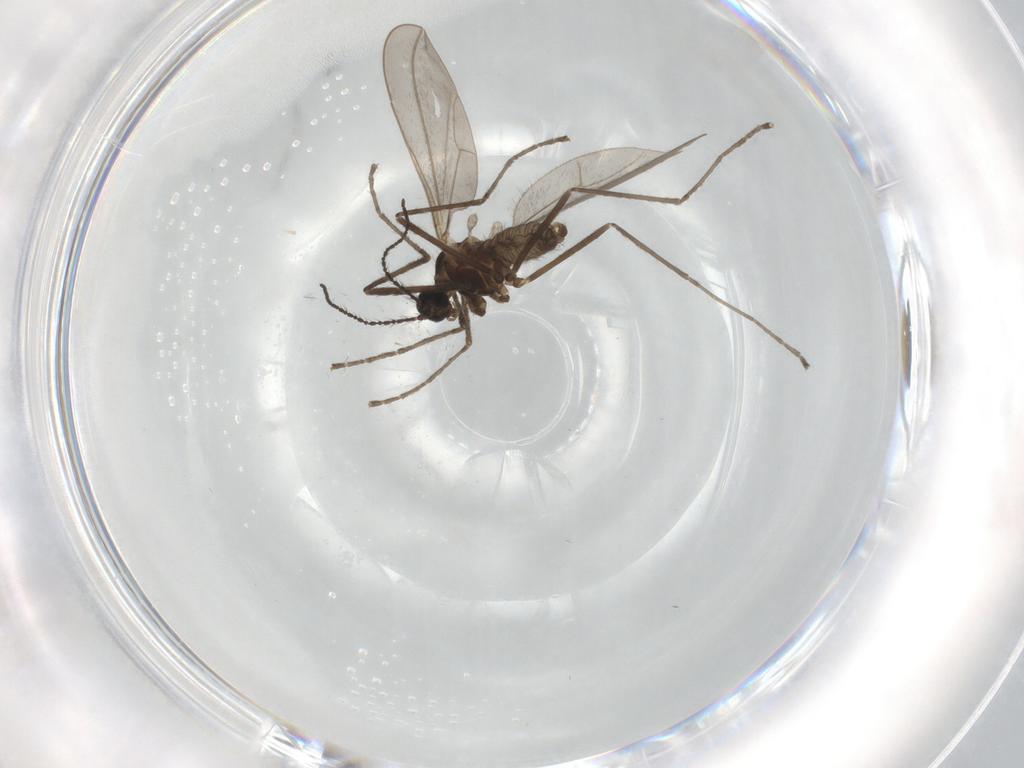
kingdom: Animalia
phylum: Arthropoda
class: Insecta
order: Diptera
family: Cecidomyiidae
